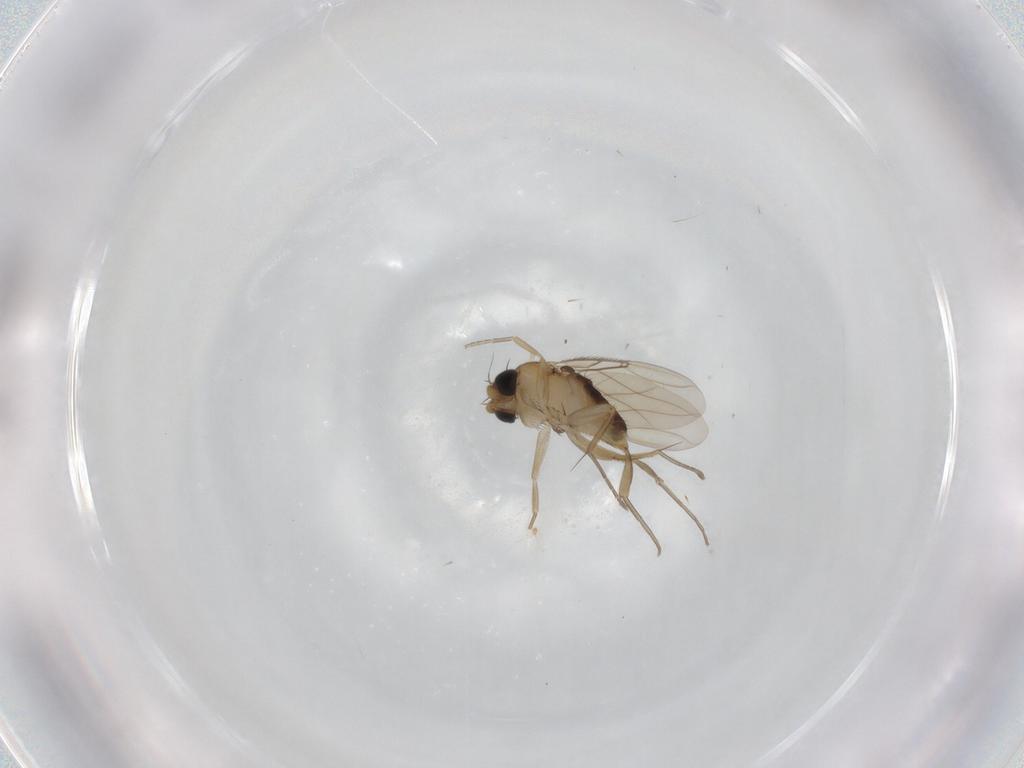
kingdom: Animalia
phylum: Arthropoda
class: Insecta
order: Diptera
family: Phoridae
